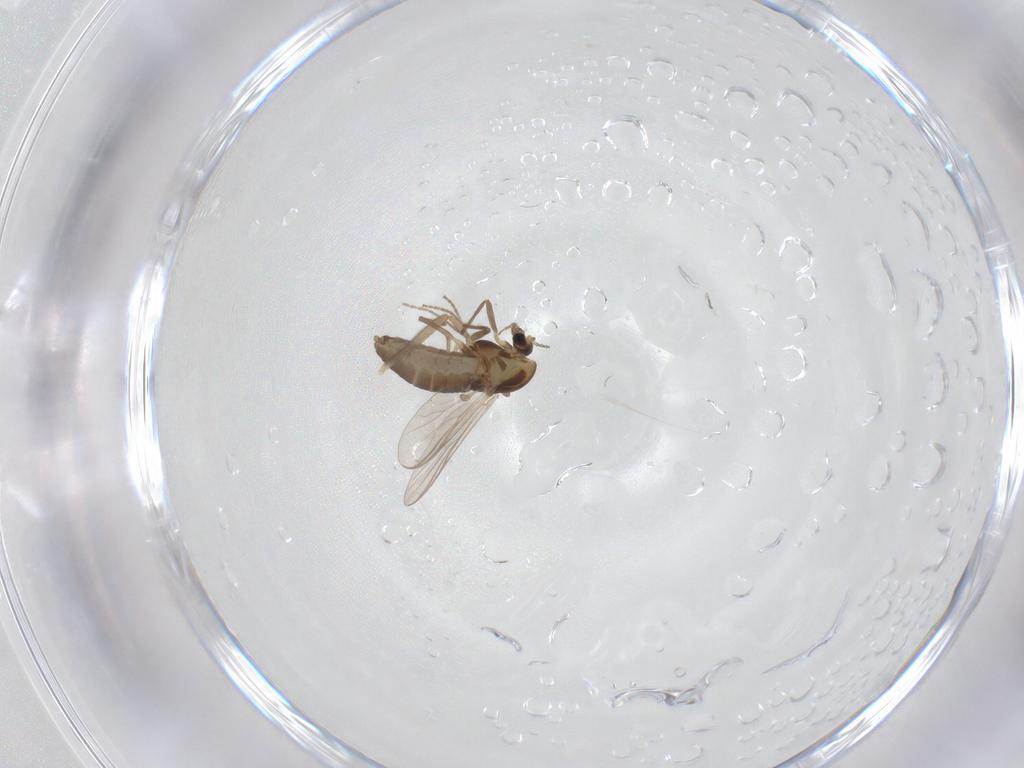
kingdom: Animalia
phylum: Arthropoda
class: Insecta
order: Diptera
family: Chironomidae
